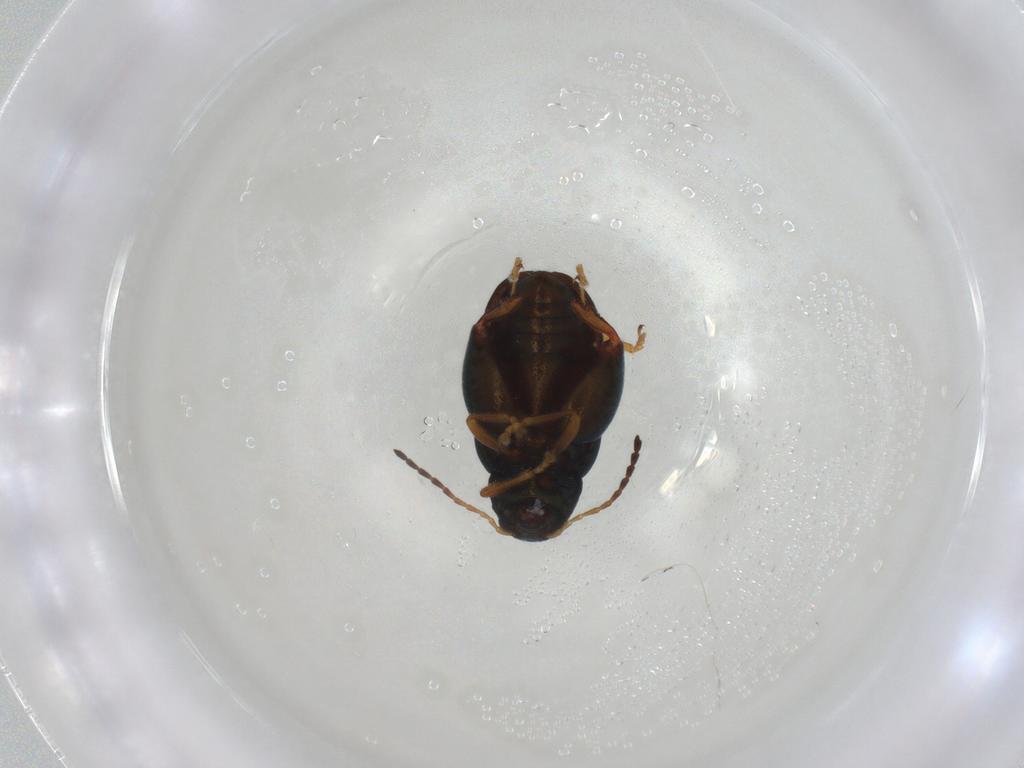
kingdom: Animalia
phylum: Arthropoda
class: Insecta
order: Coleoptera
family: Chrysomelidae
